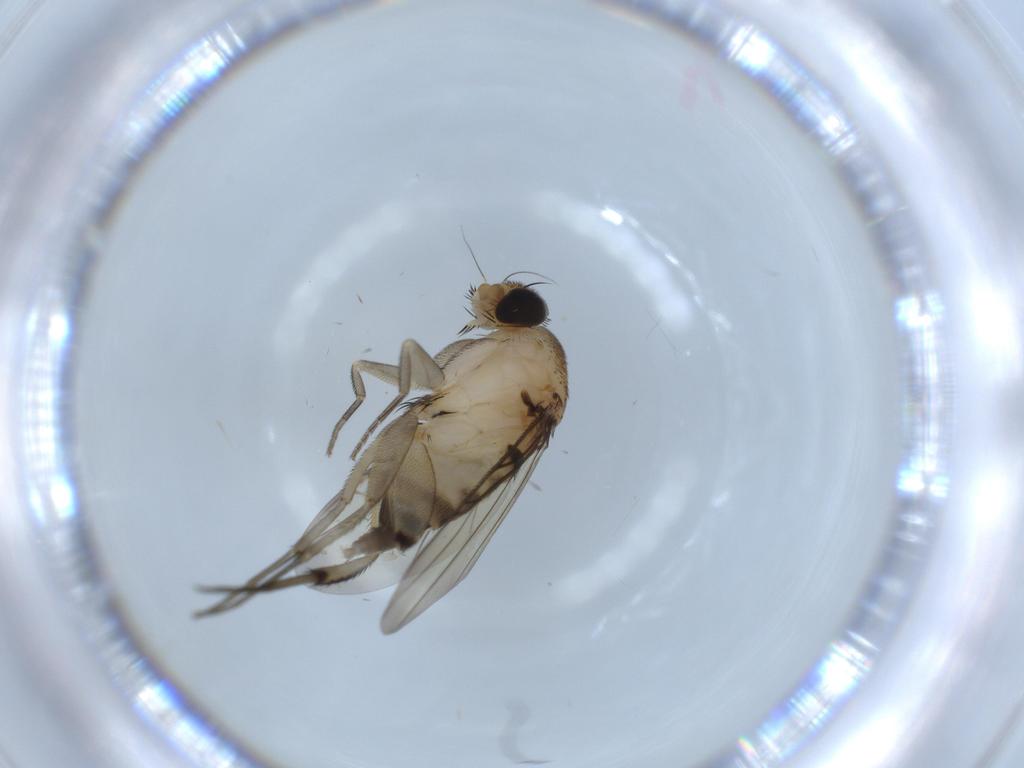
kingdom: Animalia
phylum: Arthropoda
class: Insecta
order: Diptera
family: Phoridae
